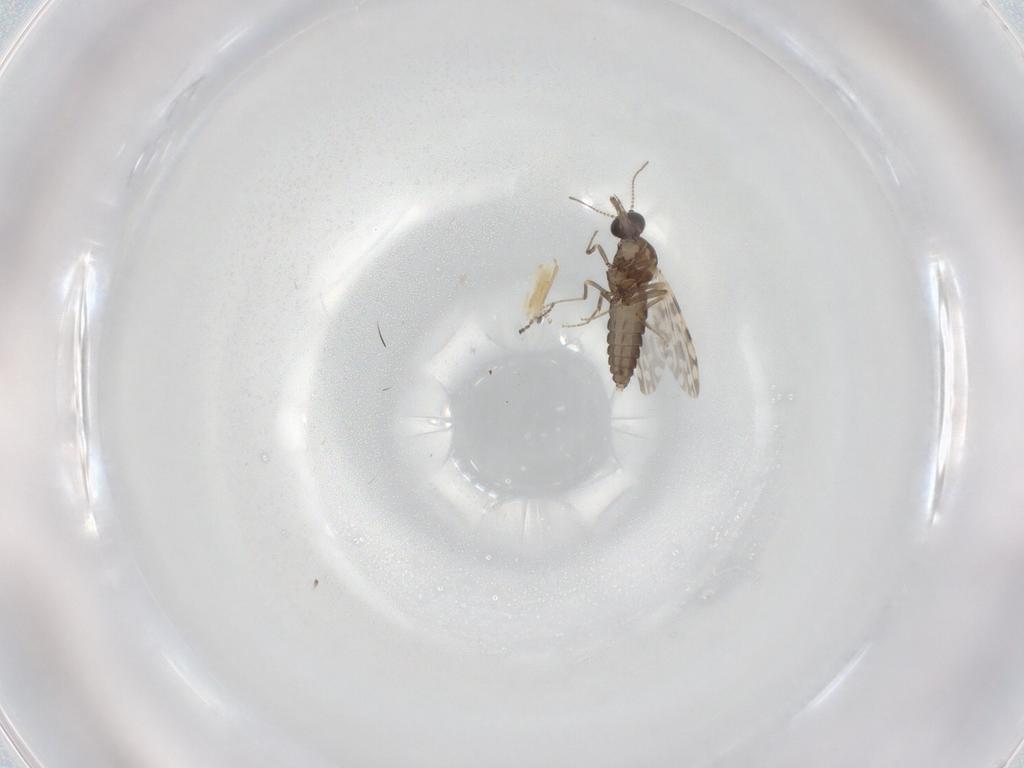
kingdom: Animalia
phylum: Arthropoda
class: Insecta
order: Diptera
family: Ceratopogonidae
